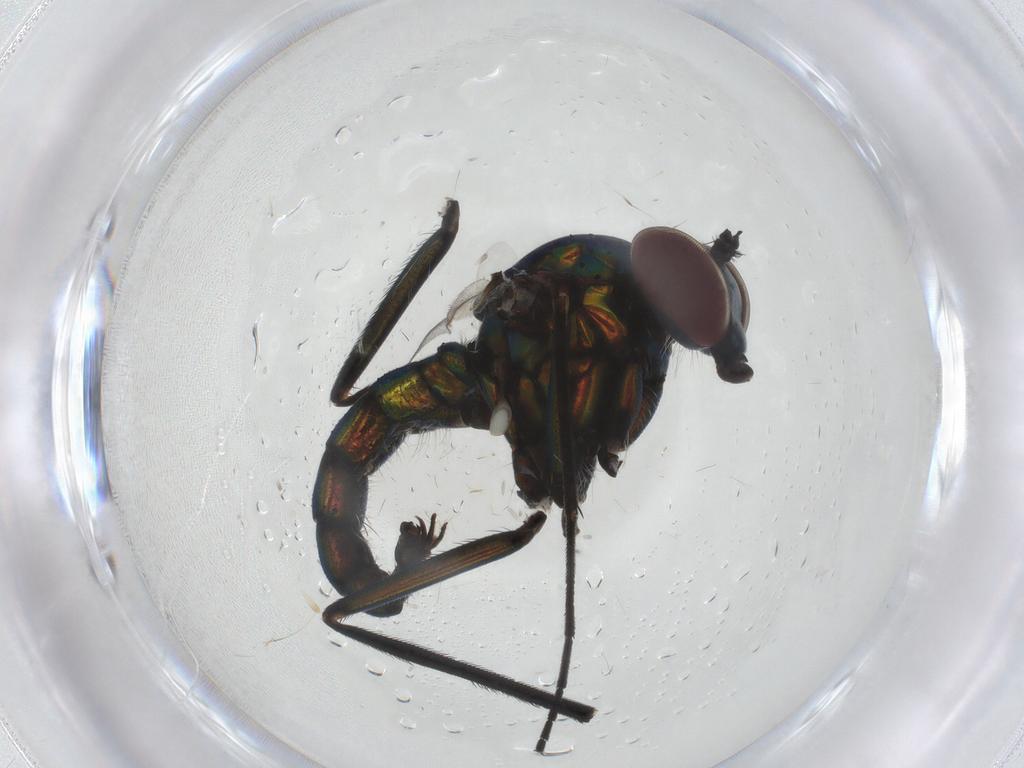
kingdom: Animalia
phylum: Arthropoda
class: Insecta
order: Diptera
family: Dolichopodidae
